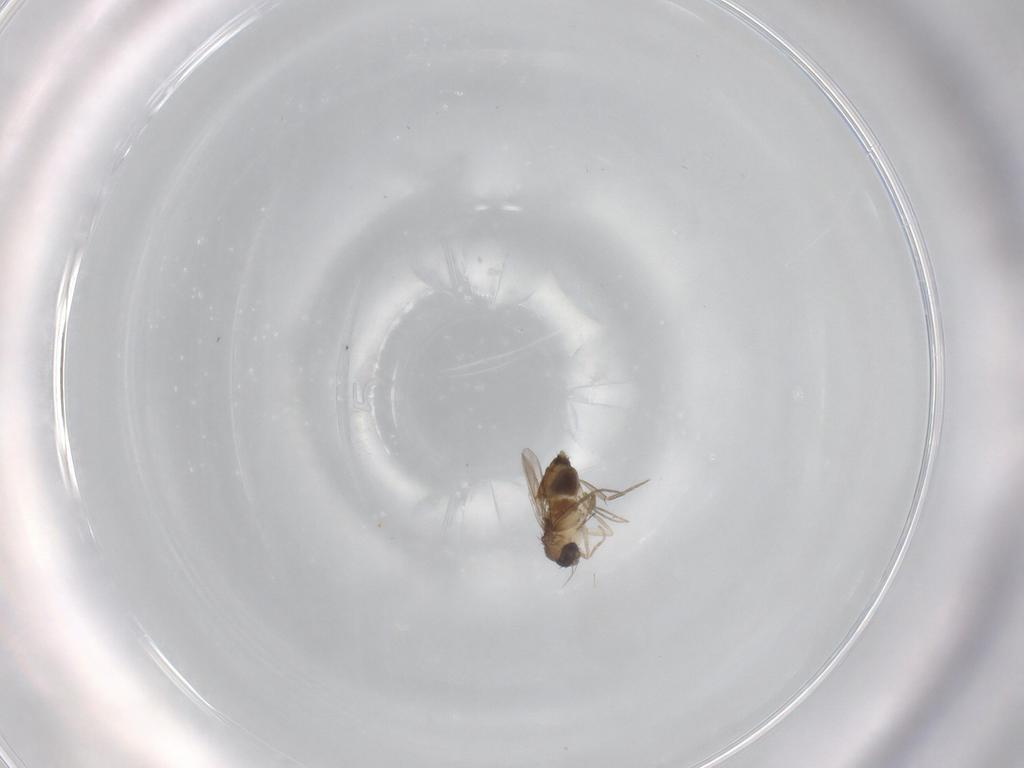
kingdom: Animalia
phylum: Arthropoda
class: Insecta
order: Diptera
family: Phoridae
